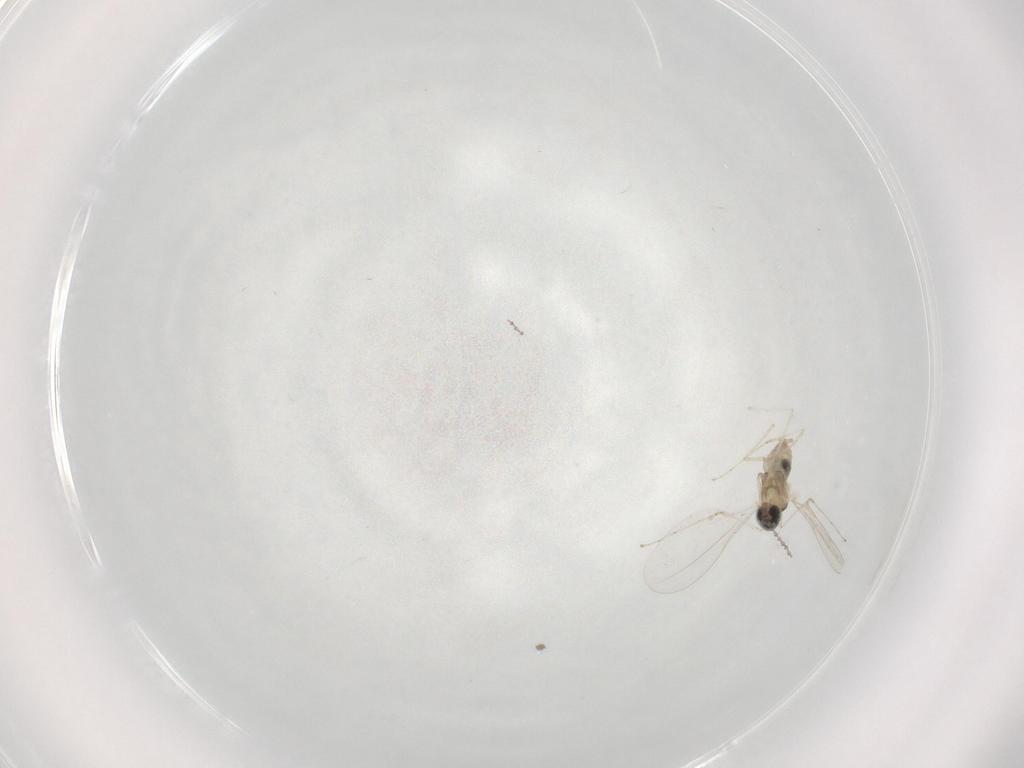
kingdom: Animalia
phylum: Arthropoda
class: Insecta
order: Diptera
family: Cecidomyiidae
